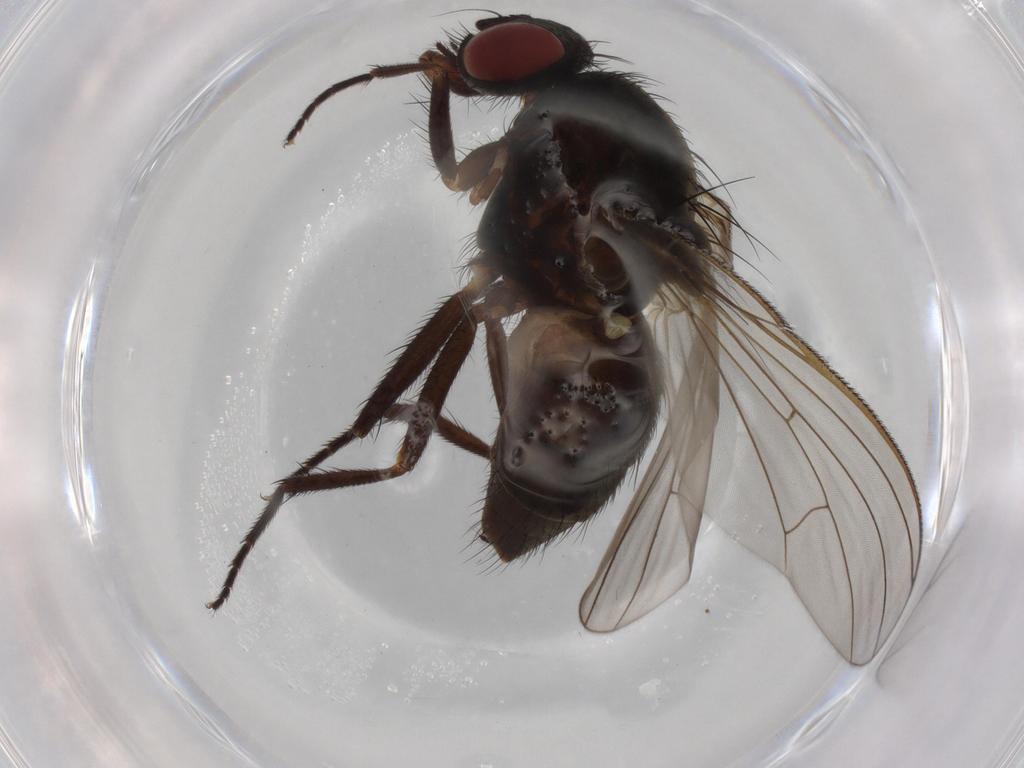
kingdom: Animalia
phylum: Arthropoda
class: Insecta
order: Diptera
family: Muscidae
